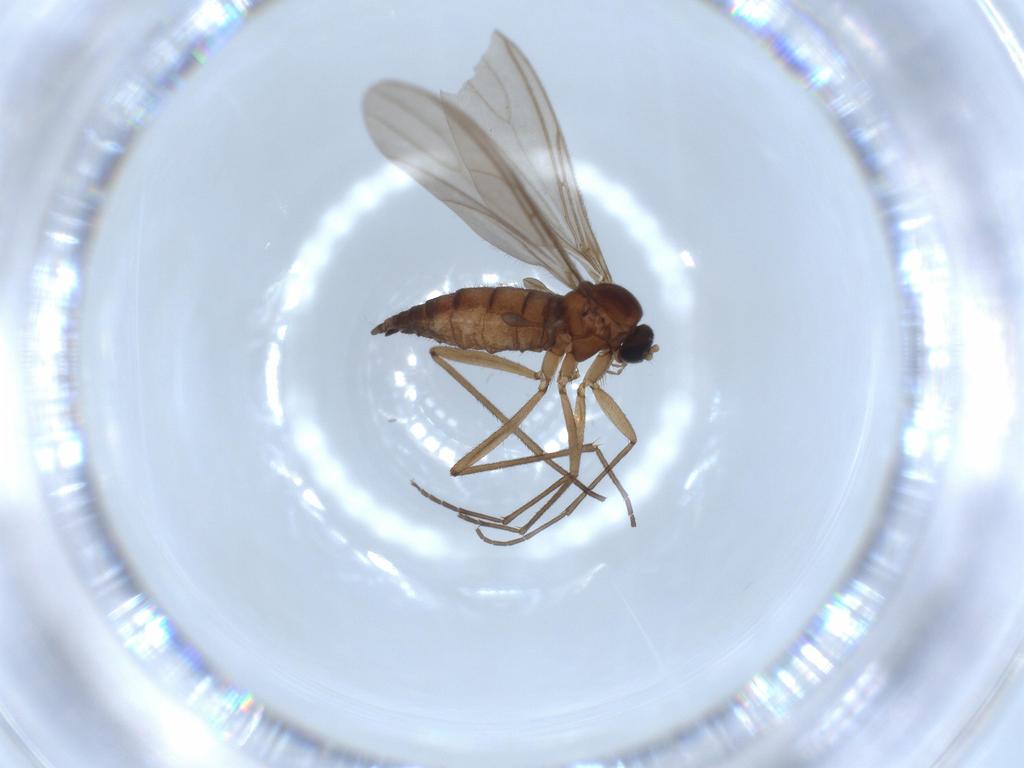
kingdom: Animalia
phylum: Arthropoda
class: Insecta
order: Diptera
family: Sciaridae
